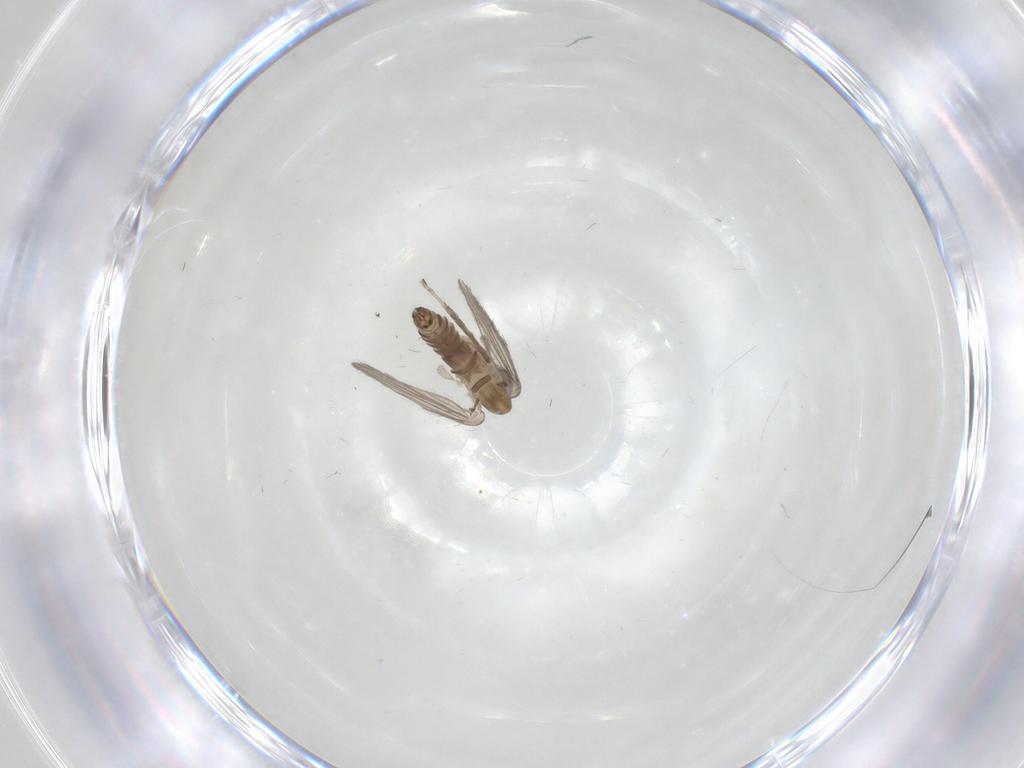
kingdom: Animalia
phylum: Arthropoda
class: Insecta
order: Diptera
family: Psychodidae
